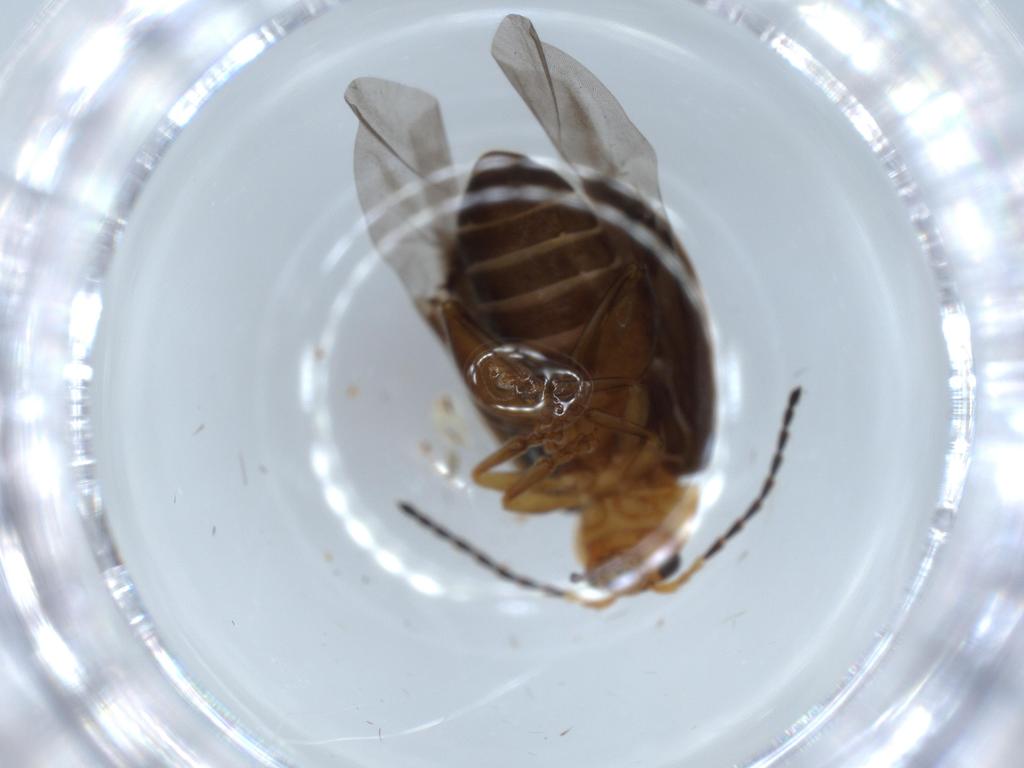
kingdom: Animalia
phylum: Arthropoda
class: Insecta
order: Coleoptera
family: Chrysomelidae
